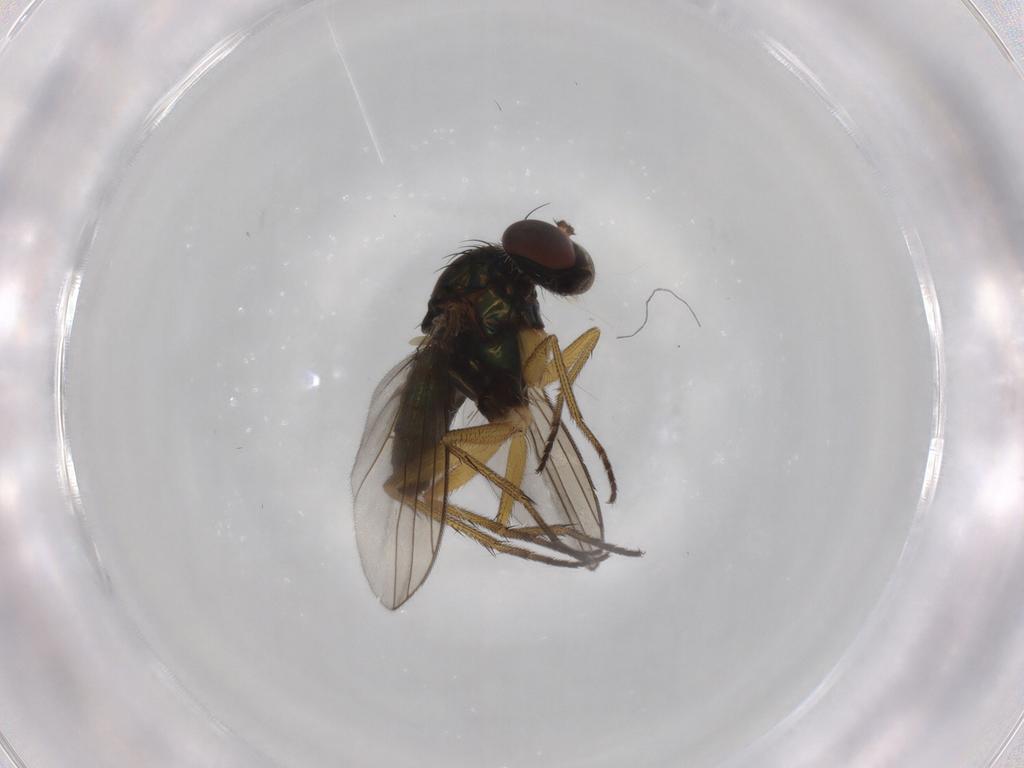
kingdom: Animalia
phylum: Arthropoda
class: Insecta
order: Diptera
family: Dolichopodidae
